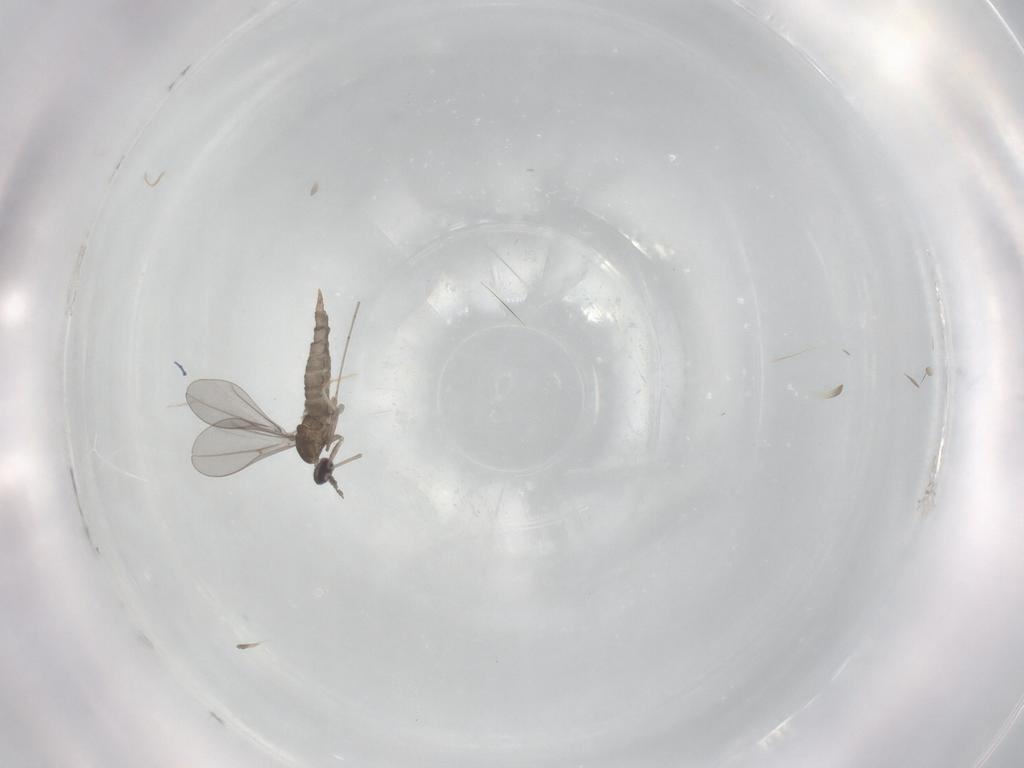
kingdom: Animalia
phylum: Arthropoda
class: Insecta
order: Diptera
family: Chironomidae
